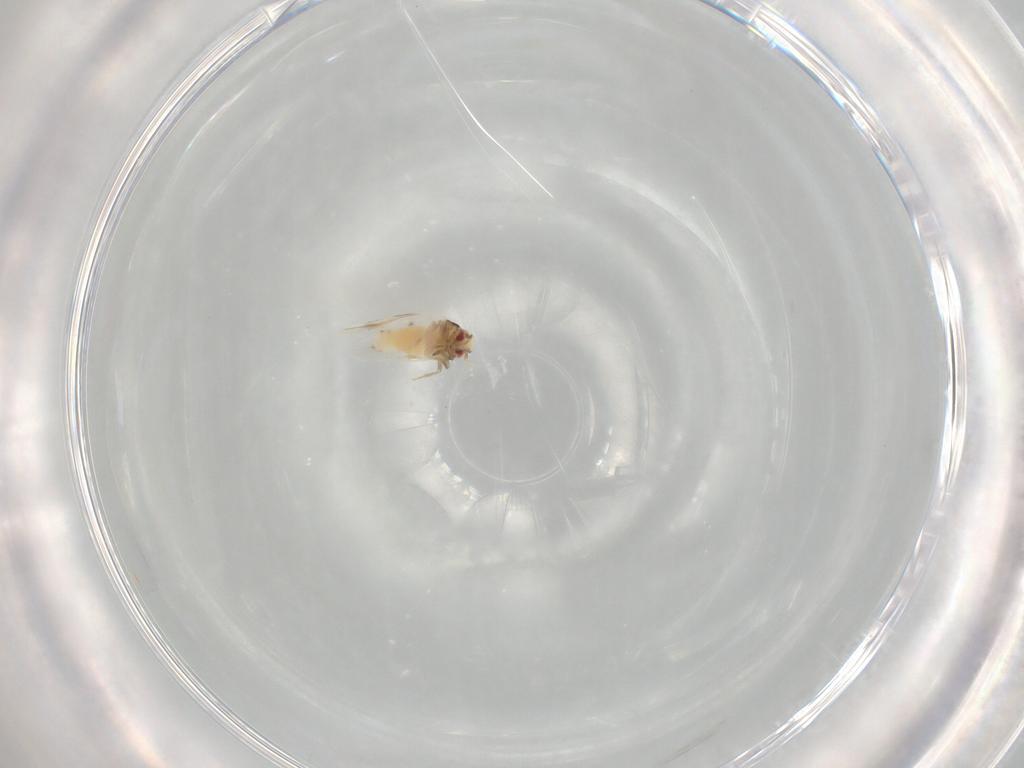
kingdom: Animalia
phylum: Arthropoda
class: Insecta
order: Hemiptera
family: Aleyrodidae
